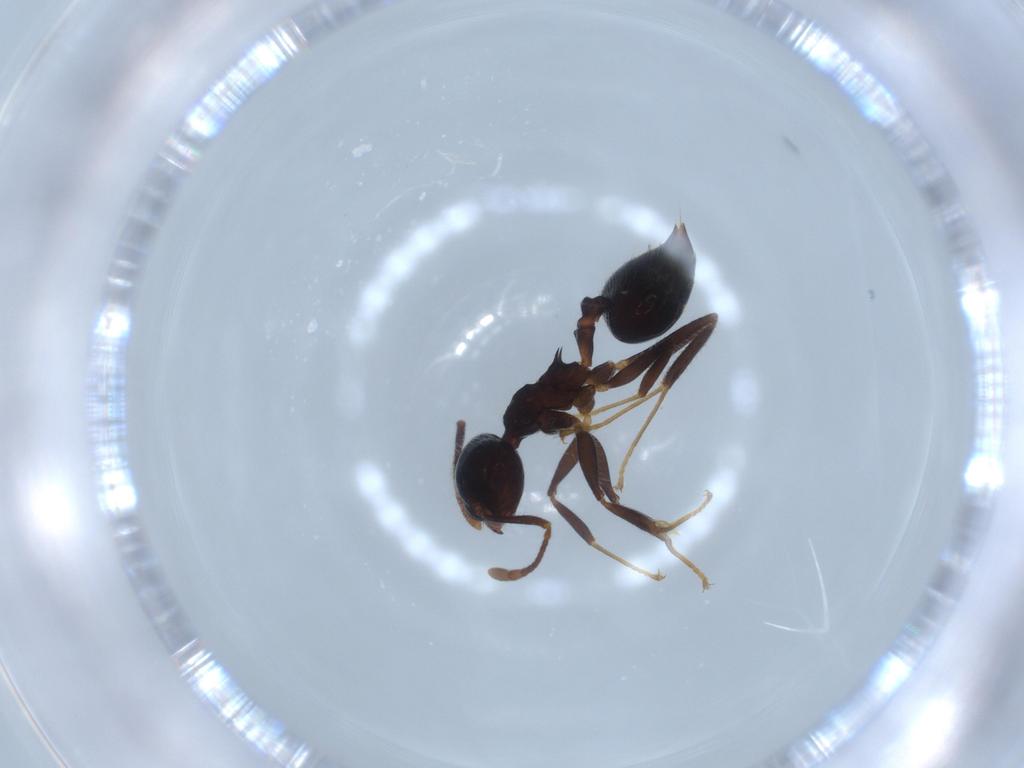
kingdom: Animalia
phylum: Arthropoda
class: Insecta
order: Hymenoptera
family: Formicidae
